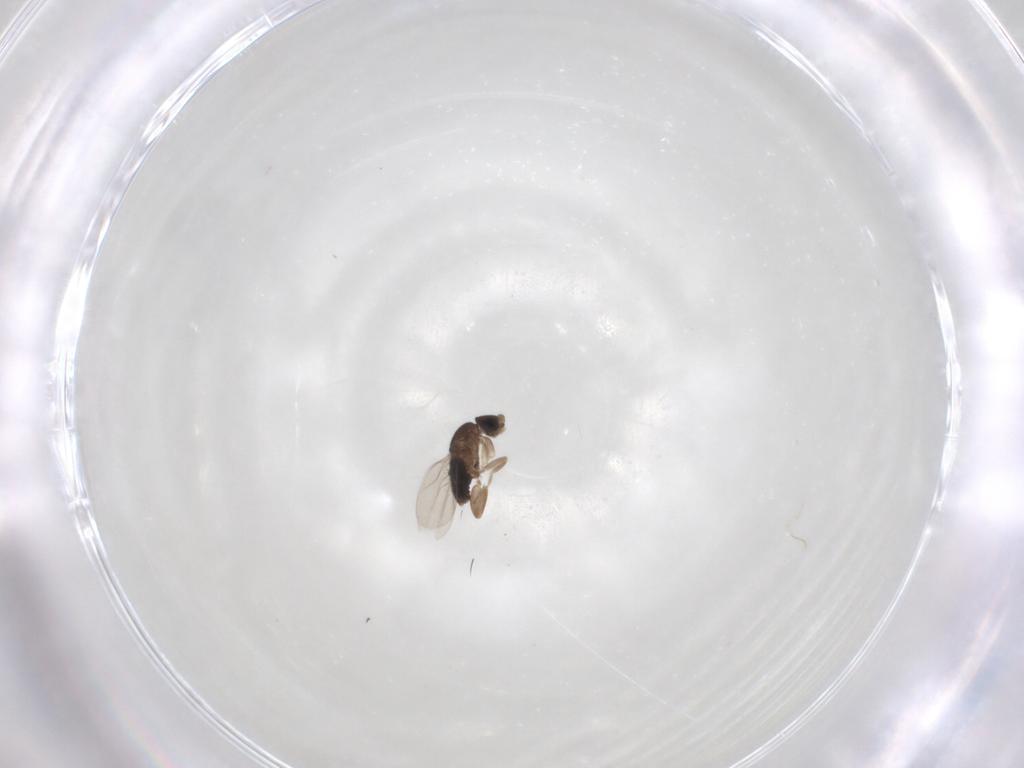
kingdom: Animalia
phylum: Arthropoda
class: Insecta
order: Diptera
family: Phoridae
